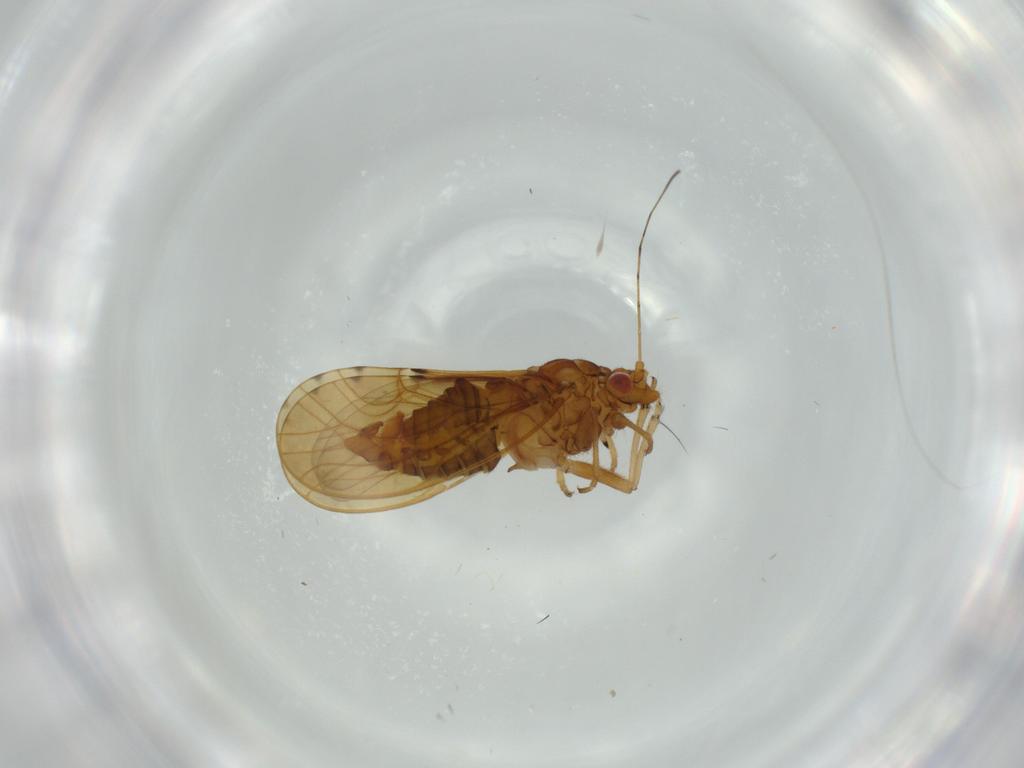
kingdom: Animalia
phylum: Arthropoda
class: Insecta
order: Hemiptera
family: Psylloidea_incertae_sedis
